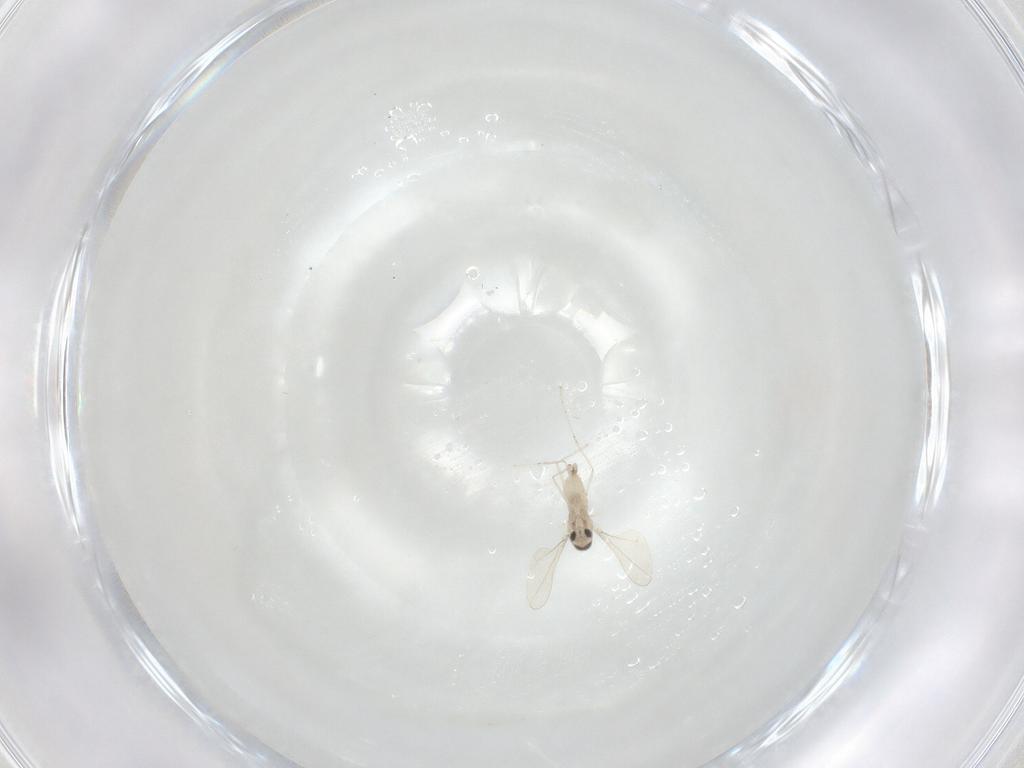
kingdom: Animalia
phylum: Arthropoda
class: Insecta
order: Diptera
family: Cecidomyiidae
